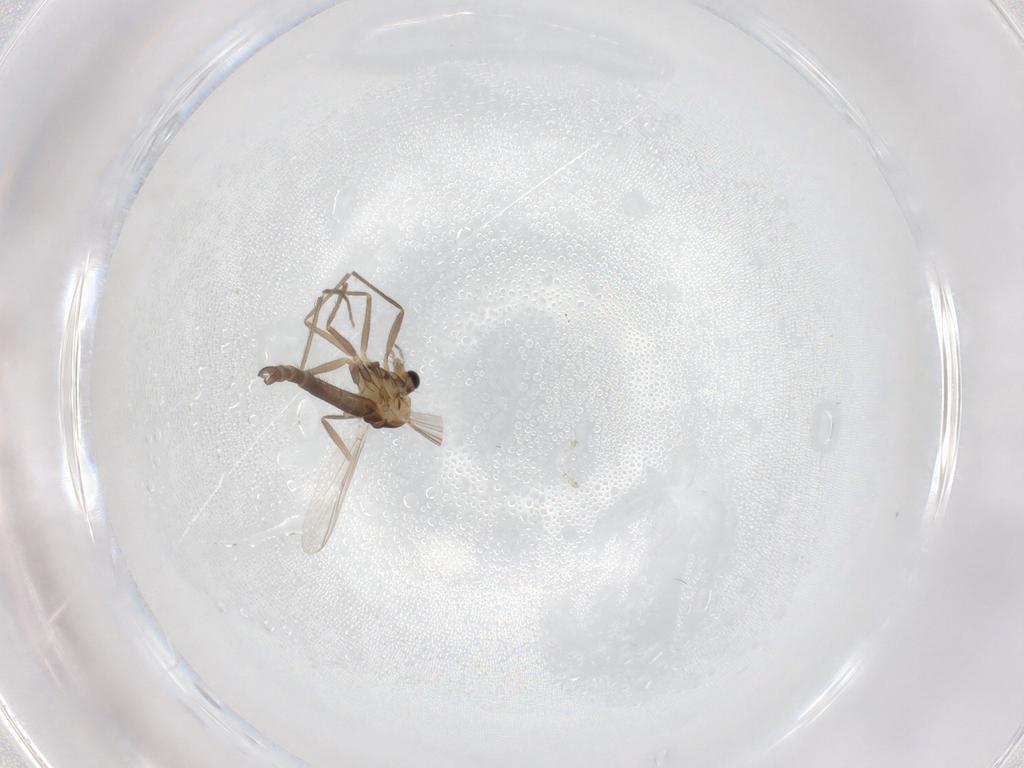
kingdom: Animalia
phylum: Arthropoda
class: Insecta
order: Diptera
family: Chironomidae
